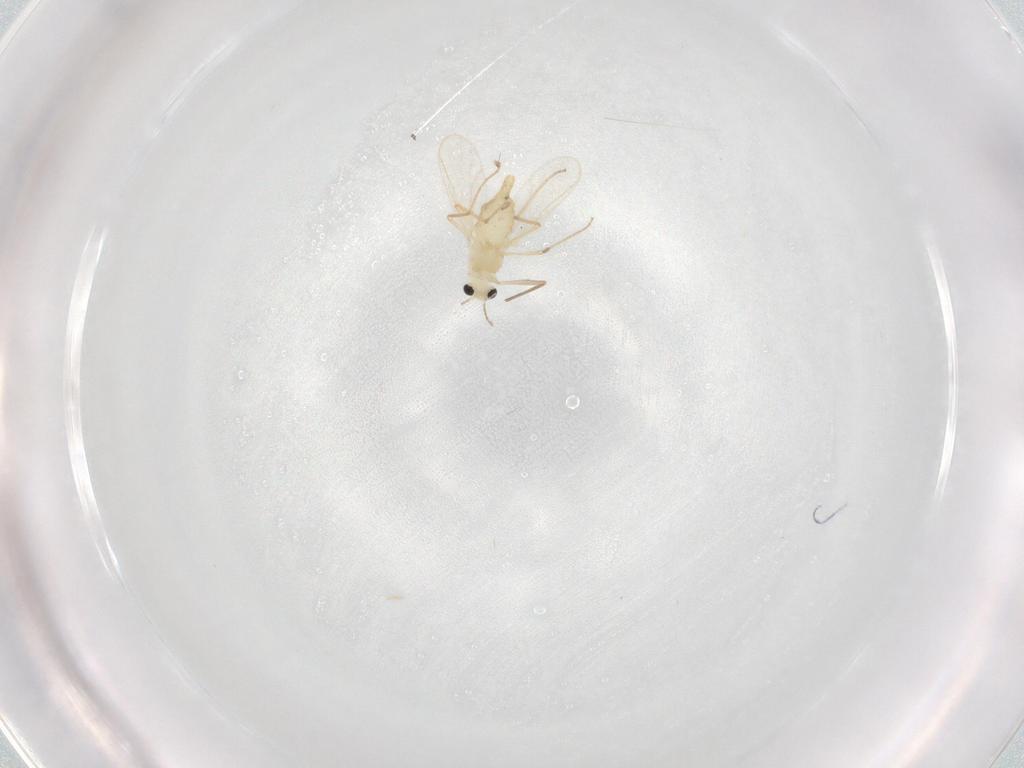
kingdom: Animalia
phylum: Arthropoda
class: Insecta
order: Diptera
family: Chironomidae
